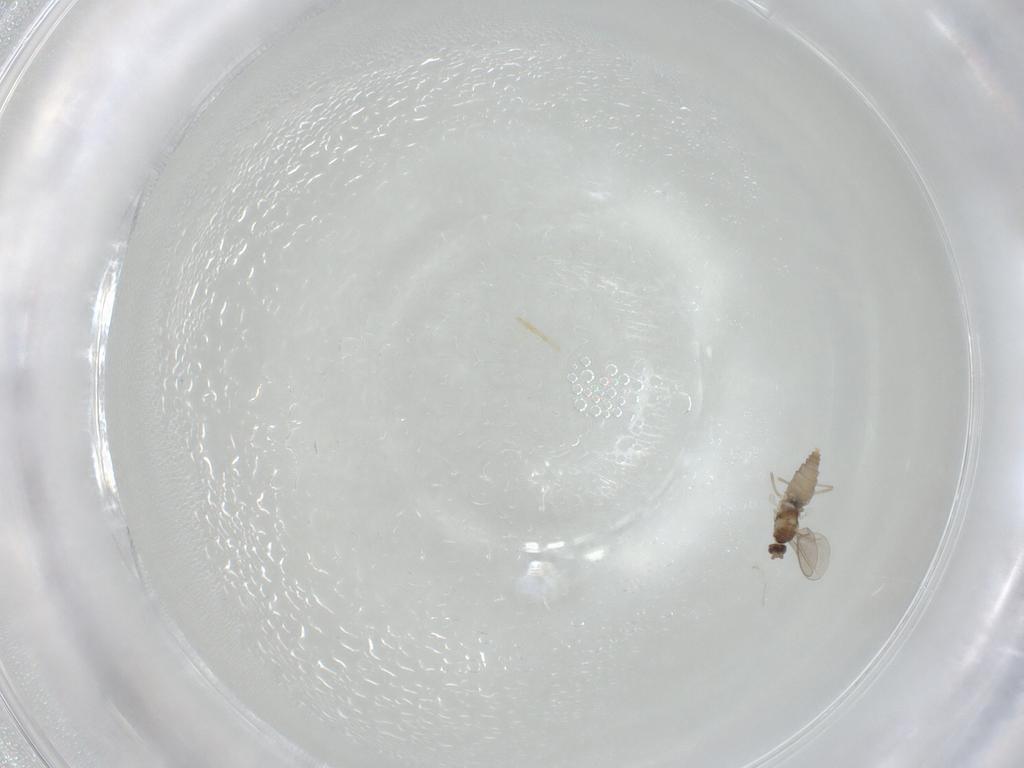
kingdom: Animalia
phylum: Arthropoda
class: Insecta
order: Diptera
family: Cecidomyiidae
